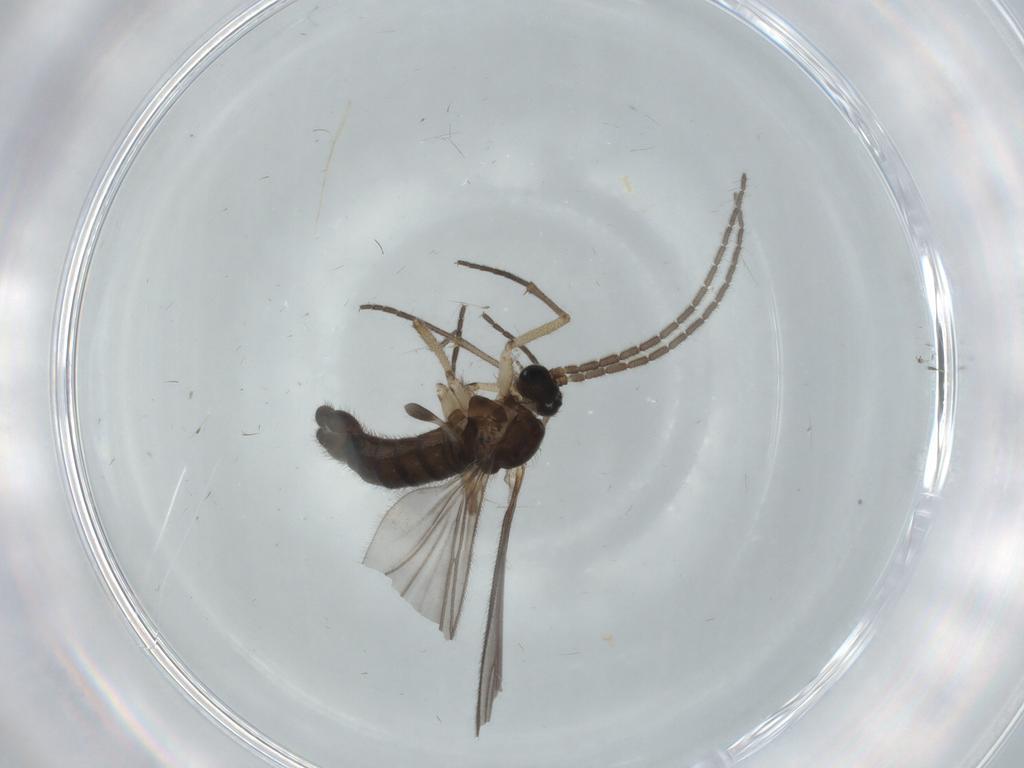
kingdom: Animalia
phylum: Arthropoda
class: Insecta
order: Diptera
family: Sciaridae
